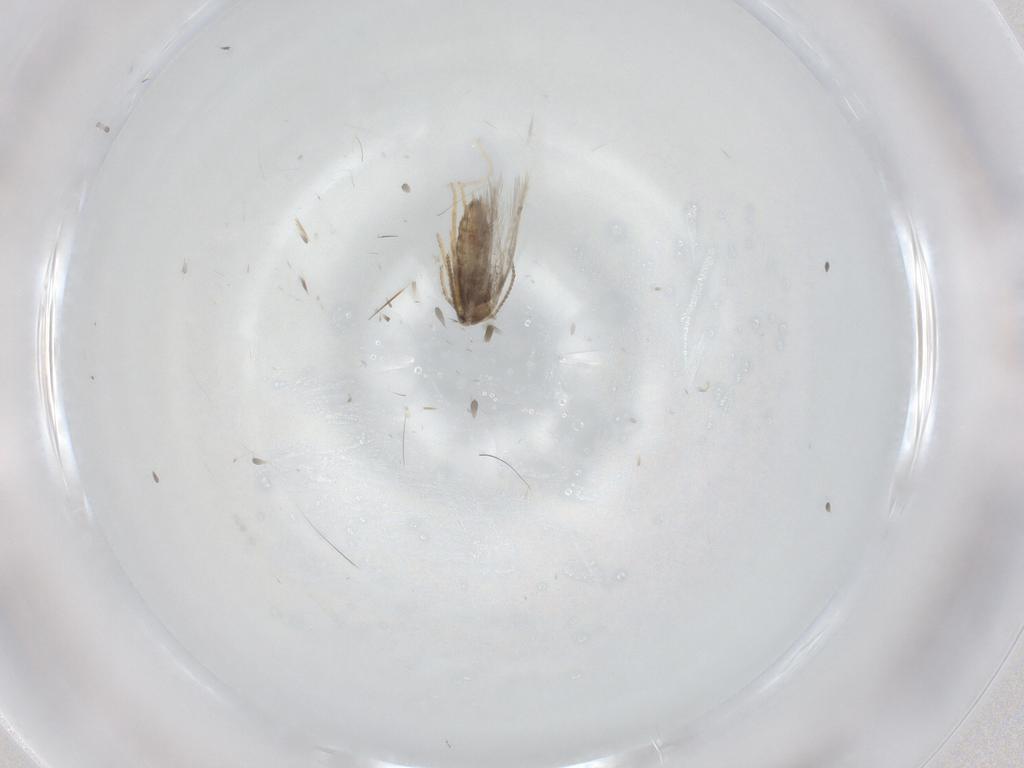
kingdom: Animalia
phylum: Arthropoda
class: Insecta
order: Lepidoptera
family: Nepticulidae
